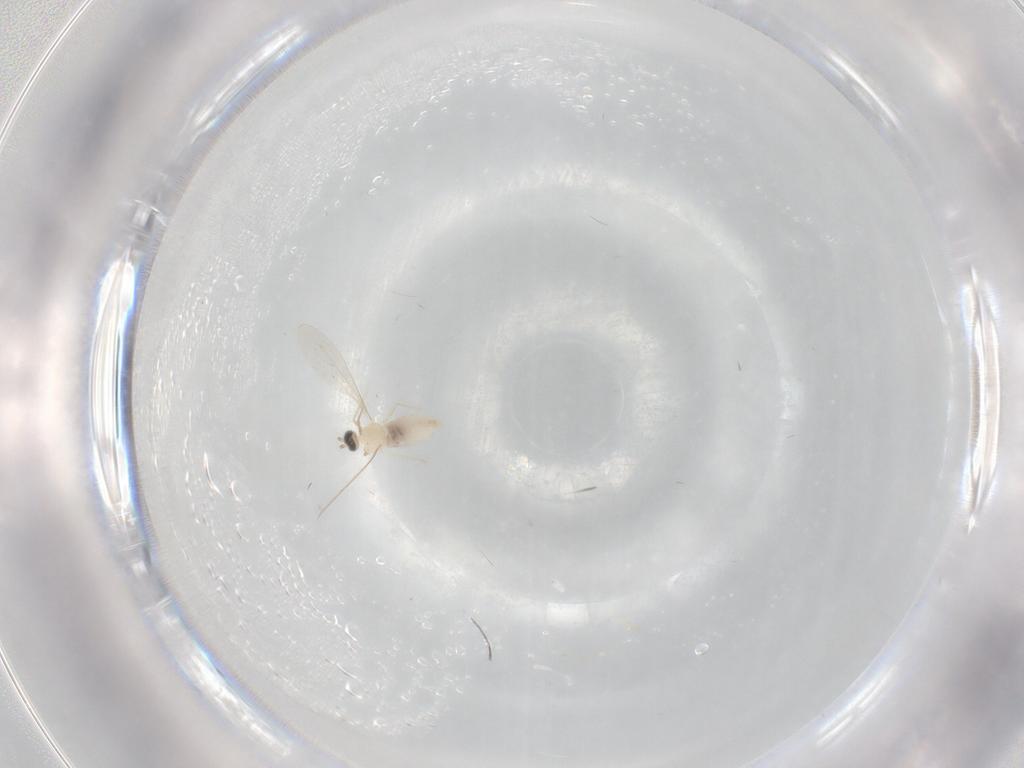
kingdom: Animalia
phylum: Arthropoda
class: Insecta
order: Diptera
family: Cecidomyiidae
